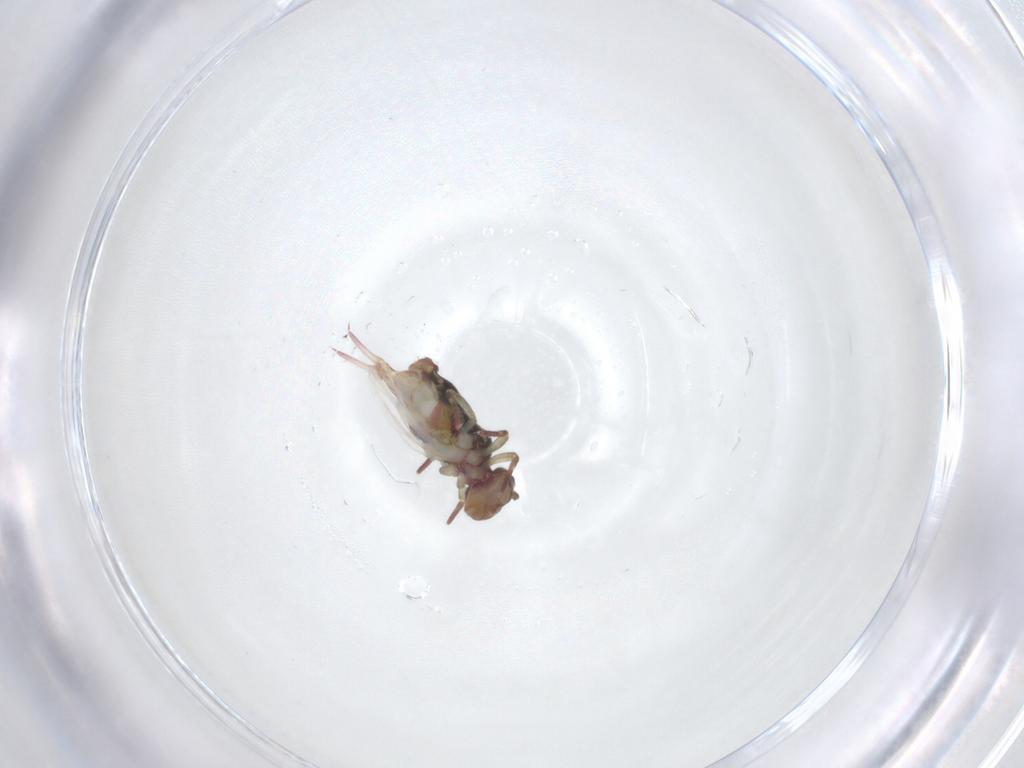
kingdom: Animalia
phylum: Arthropoda
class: Collembola
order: Symphypleona
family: Dicyrtomidae
